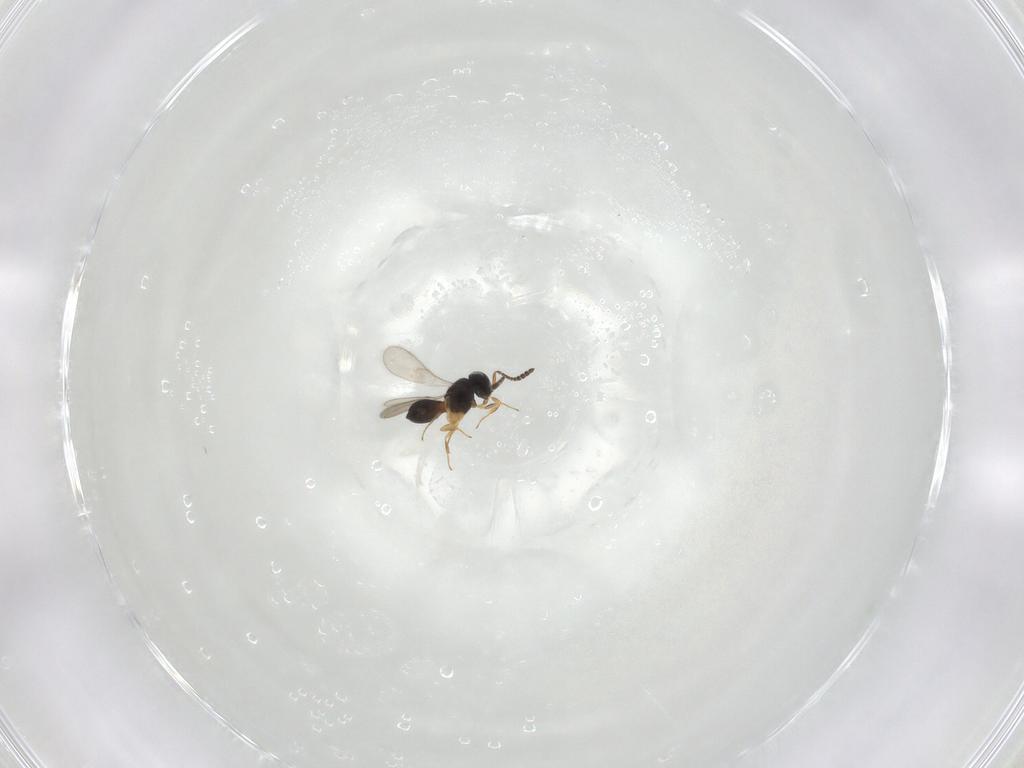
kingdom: Animalia
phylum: Arthropoda
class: Insecta
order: Hymenoptera
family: Scelionidae
